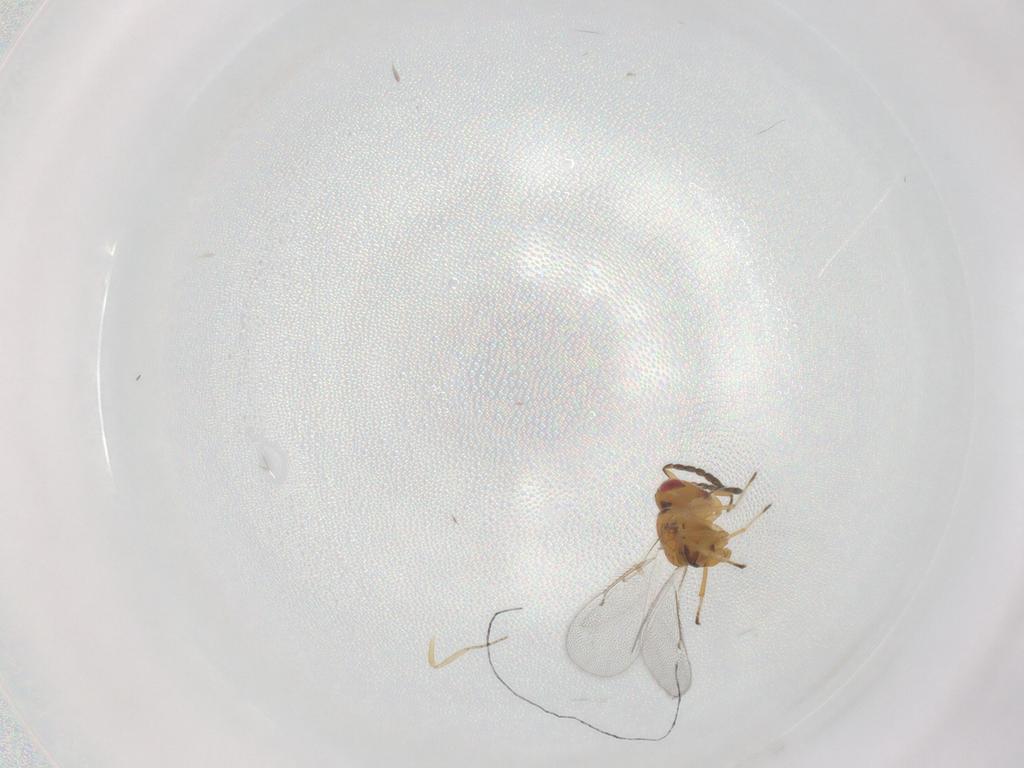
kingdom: Animalia
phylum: Arthropoda
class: Insecta
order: Hymenoptera
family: Eulophidae
